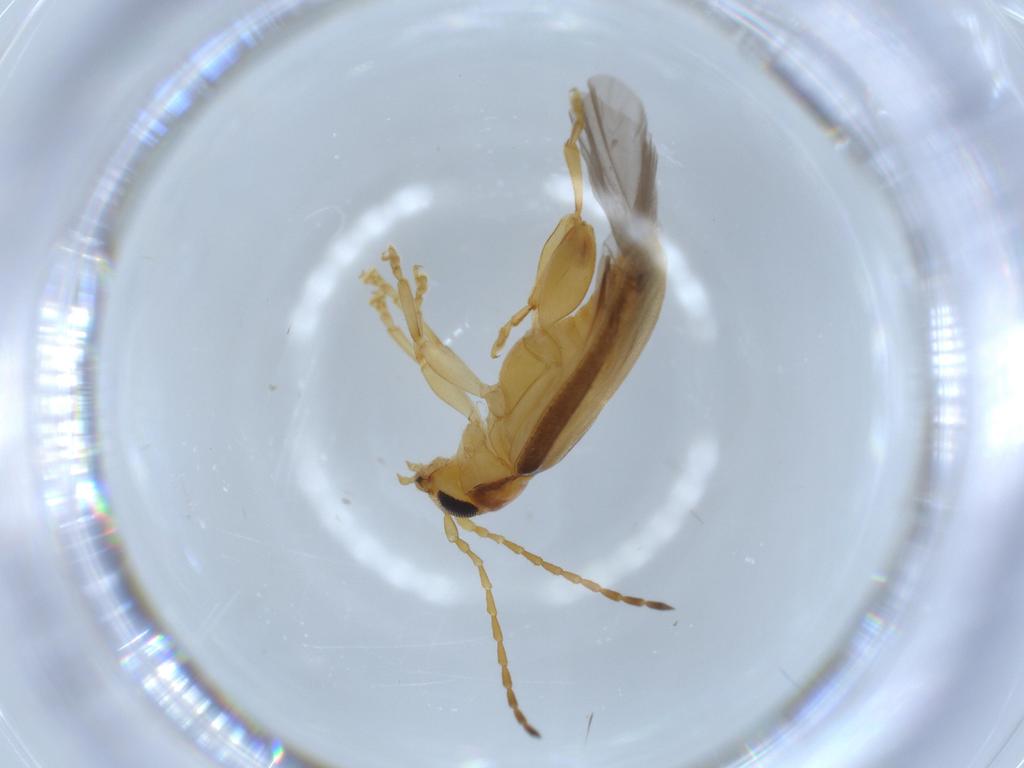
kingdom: Animalia
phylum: Arthropoda
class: Insecta
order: Coleoptera
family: Chrysomelidae
